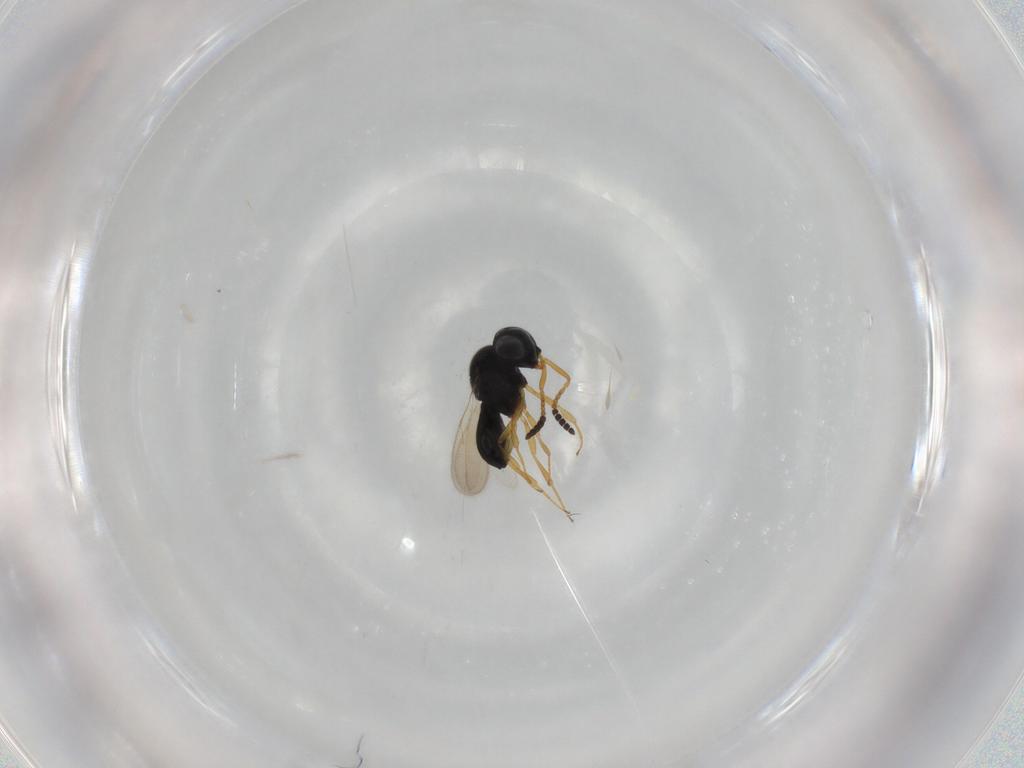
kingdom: Animalia
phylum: Arthropoda
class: Insecta
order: Hymenoptera
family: Scelionidae
